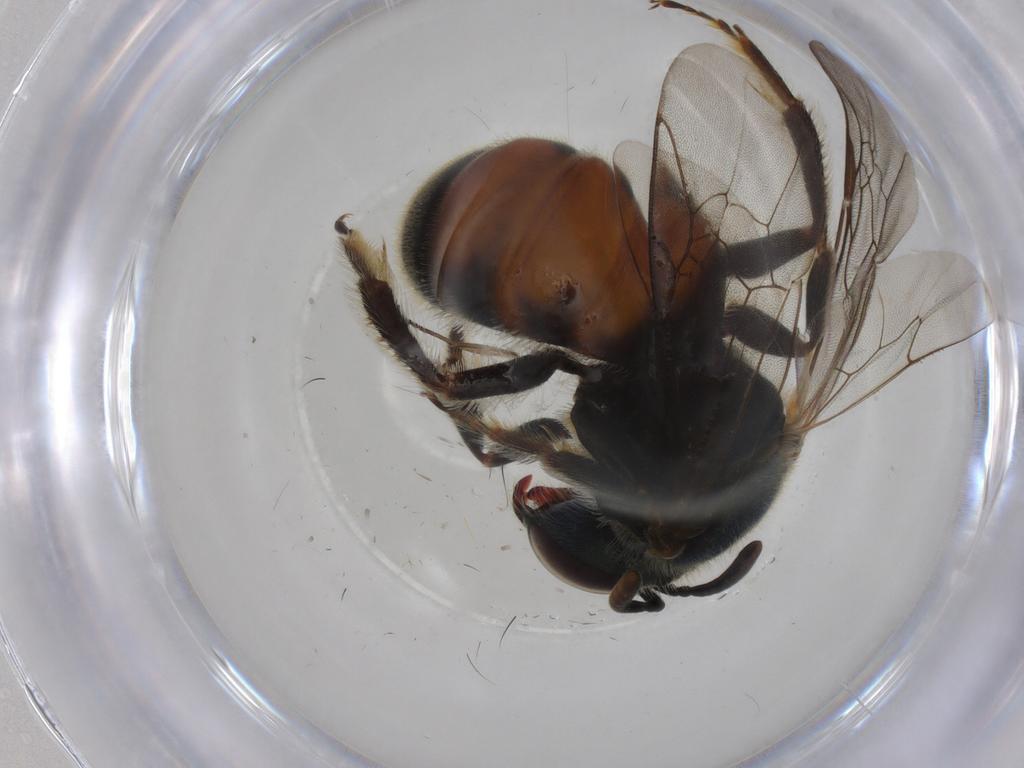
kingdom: Animalia
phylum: Arthropoda
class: Insecta
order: Hymenoptera
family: Halictidae
